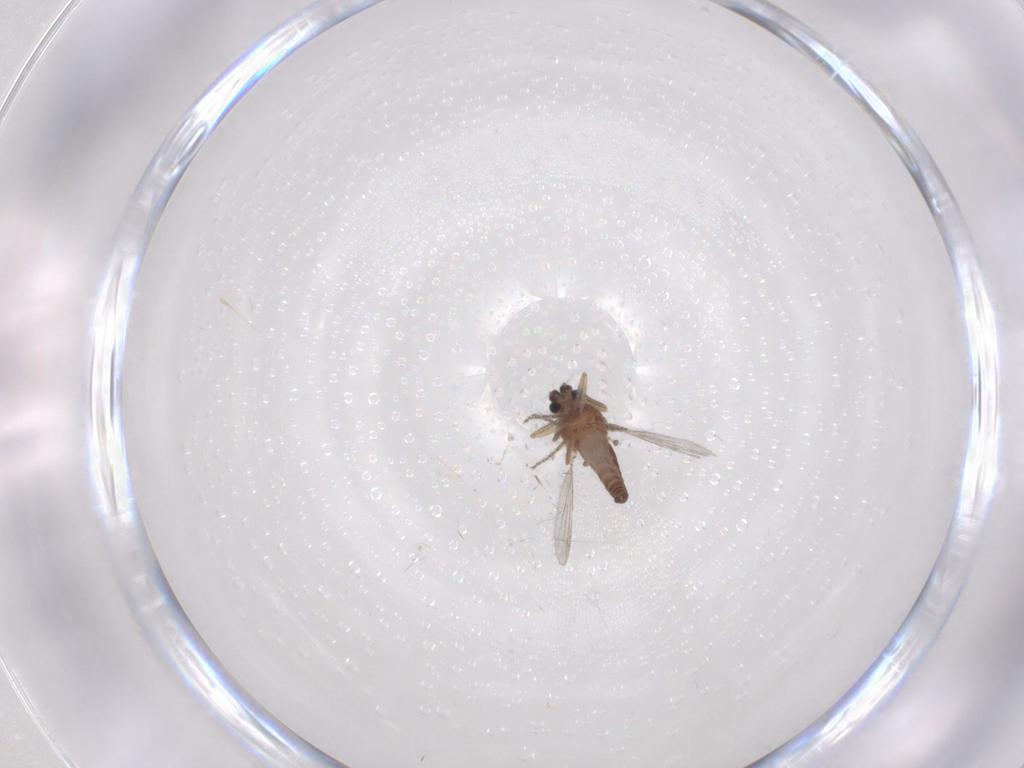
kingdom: Animalia
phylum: Arthropoda
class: Insecta
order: Diptera
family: Ceratopogonidae
